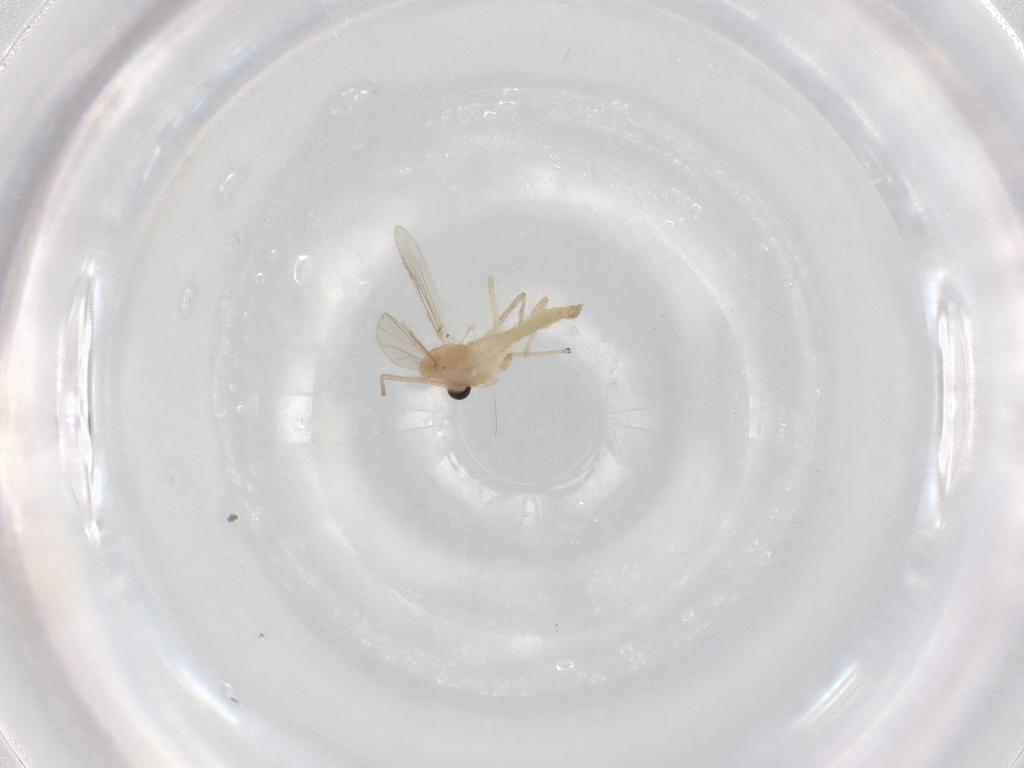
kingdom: Animalia
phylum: Arthropoda
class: Insecta
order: Diptera
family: Chironomidae
